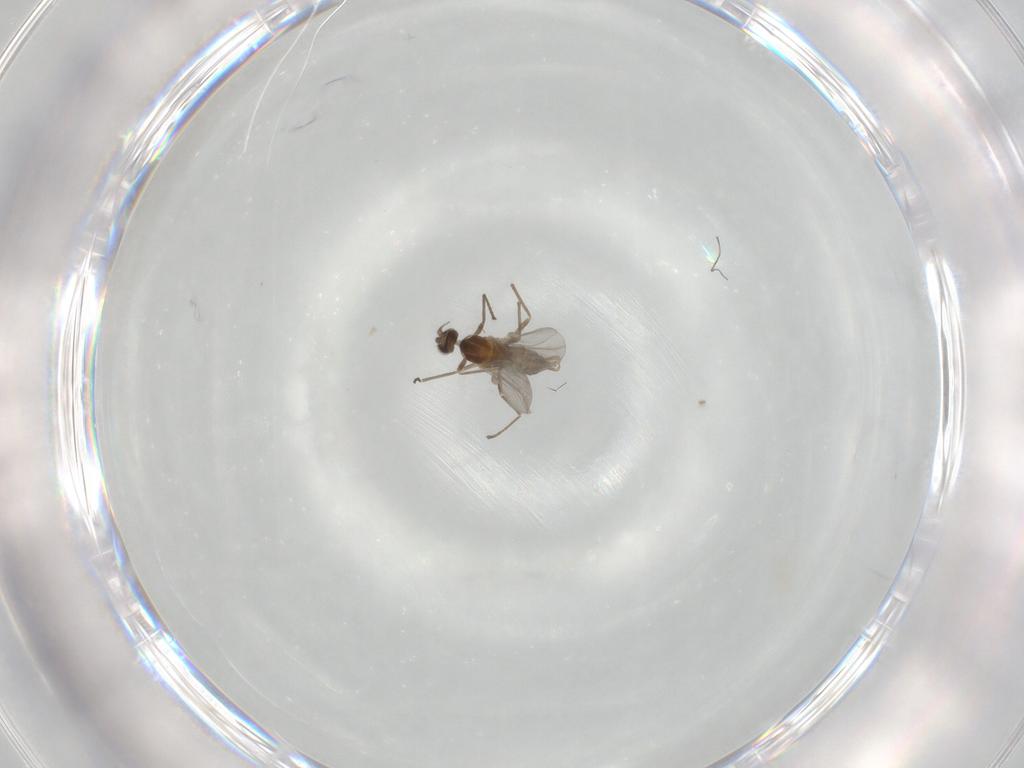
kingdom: Animalia
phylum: Arthropoda
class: Insecta
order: Diptera
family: Cecidomyiidae
